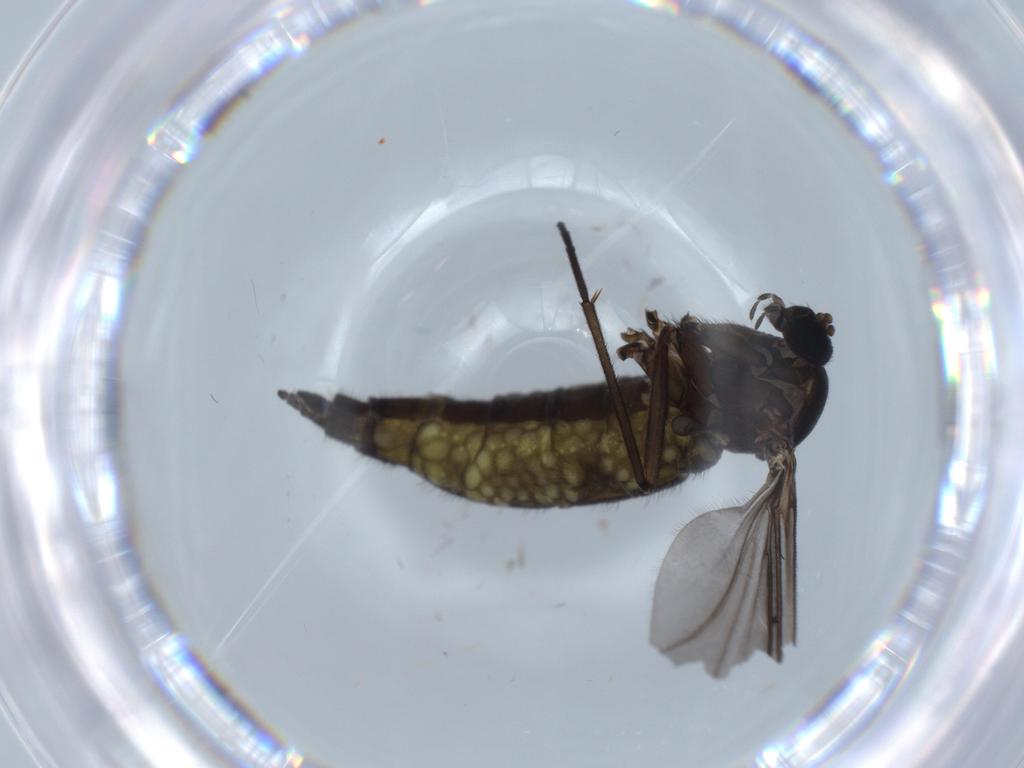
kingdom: Animalia
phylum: Arthropoda
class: Insecta
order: Diptera
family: Sciaridae
